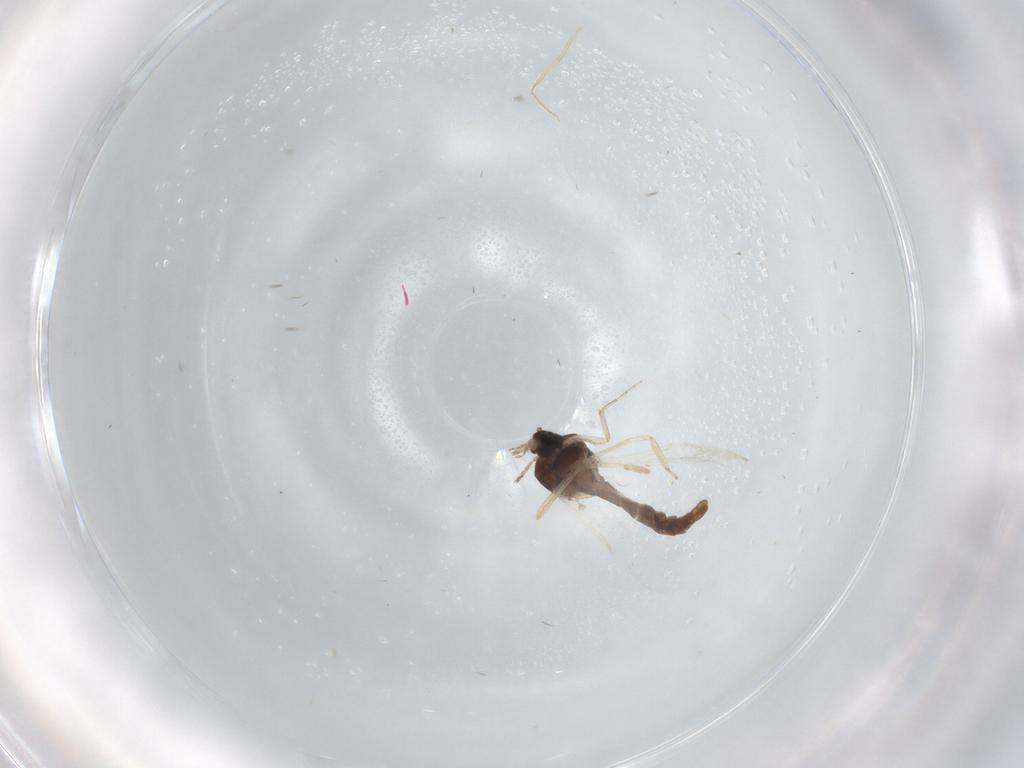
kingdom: Animalia
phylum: Arthropoda
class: Insecta
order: Diptera
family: Ceratopogonidae
